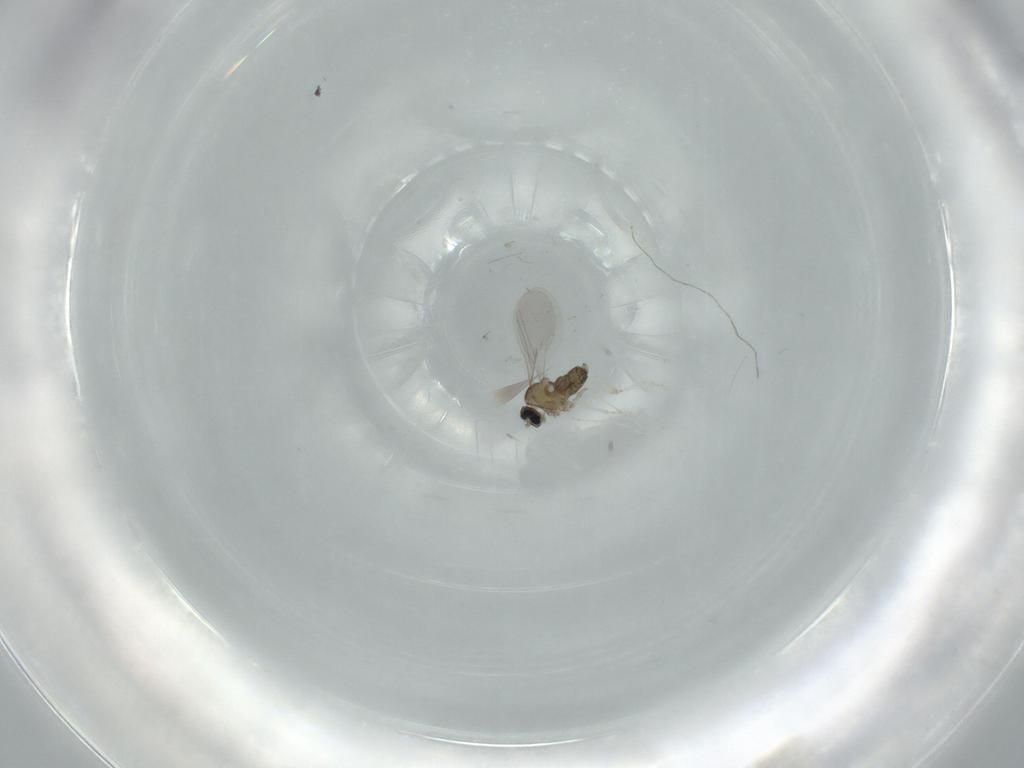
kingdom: Animalia
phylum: Arthropoda
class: Insecta
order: Diptera
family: Cecidomyiidae
